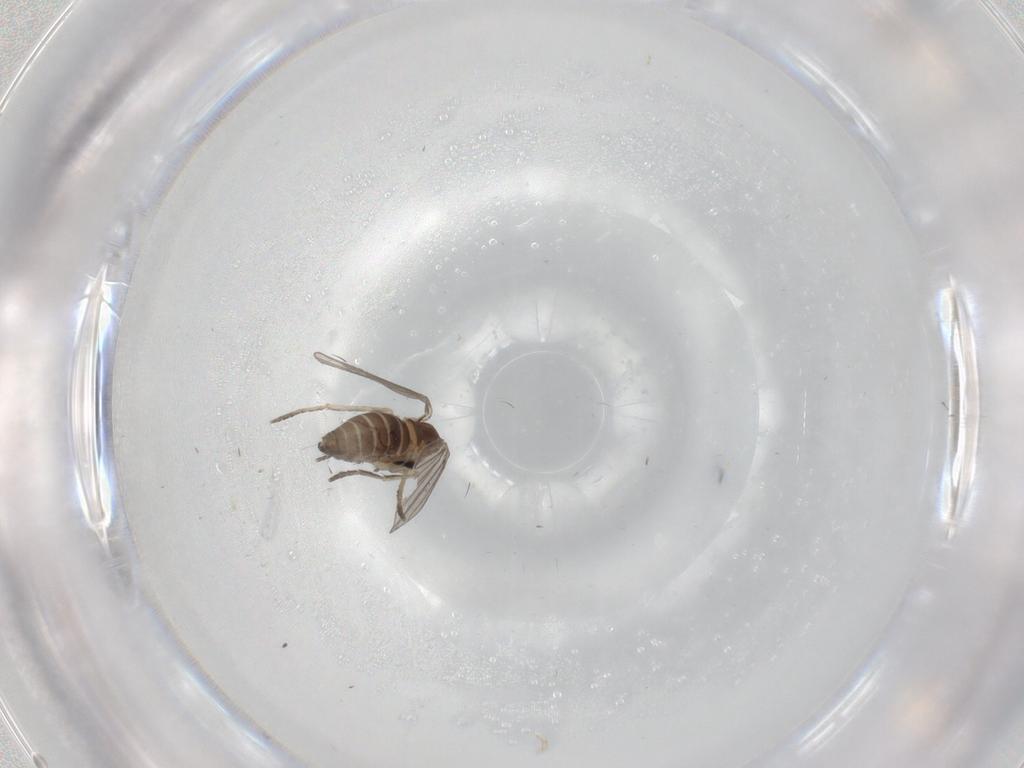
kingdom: Animalia
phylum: Arthropoda
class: Insecta
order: Diptera
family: Psychodidae
